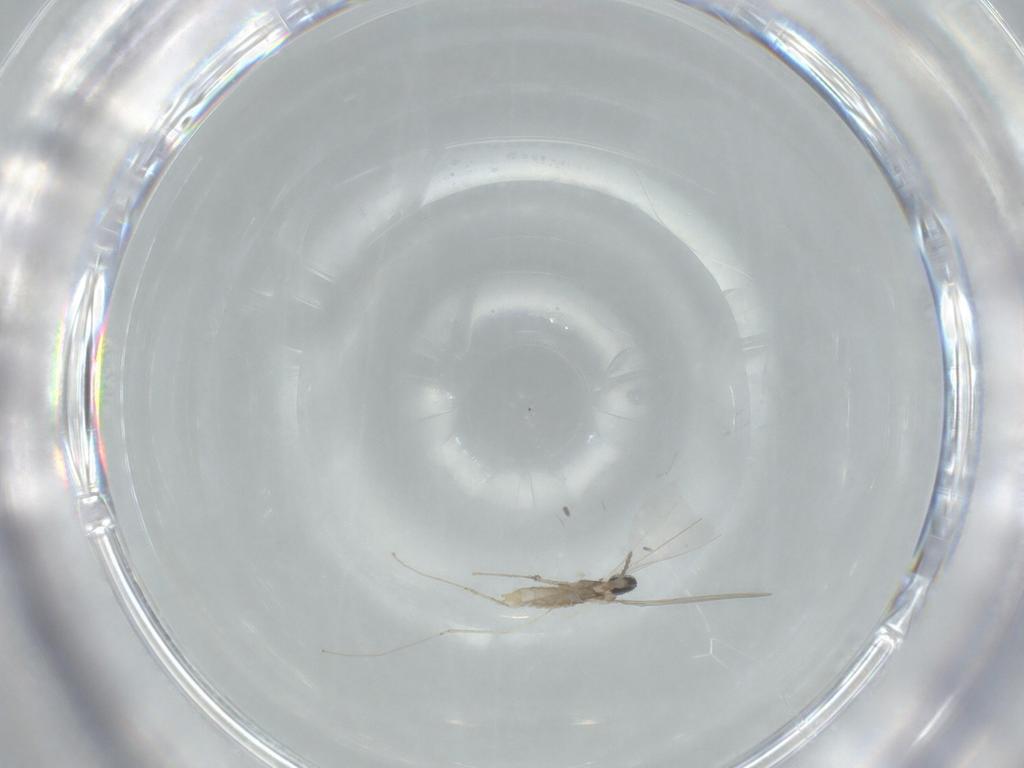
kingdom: Animalia
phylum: Arthropoda
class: Insecta
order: Diptera
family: Cecidomyiidae
